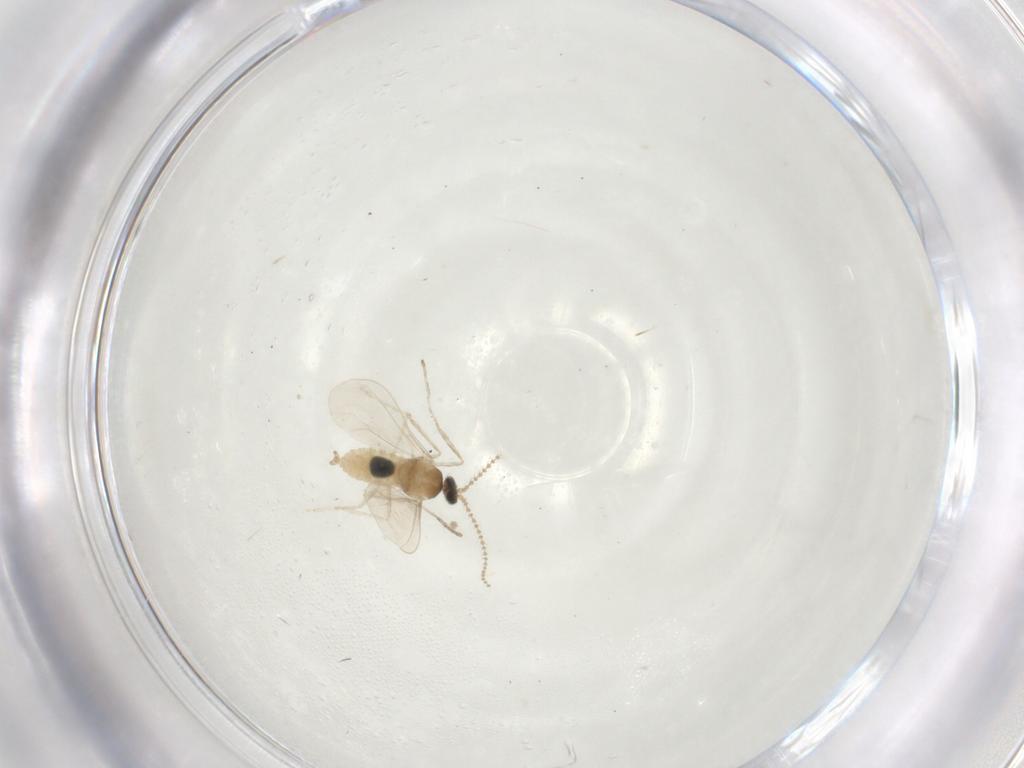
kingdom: Animalia
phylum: Arthropoda
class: Insecta
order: Diptera
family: Cecidomyiidae
